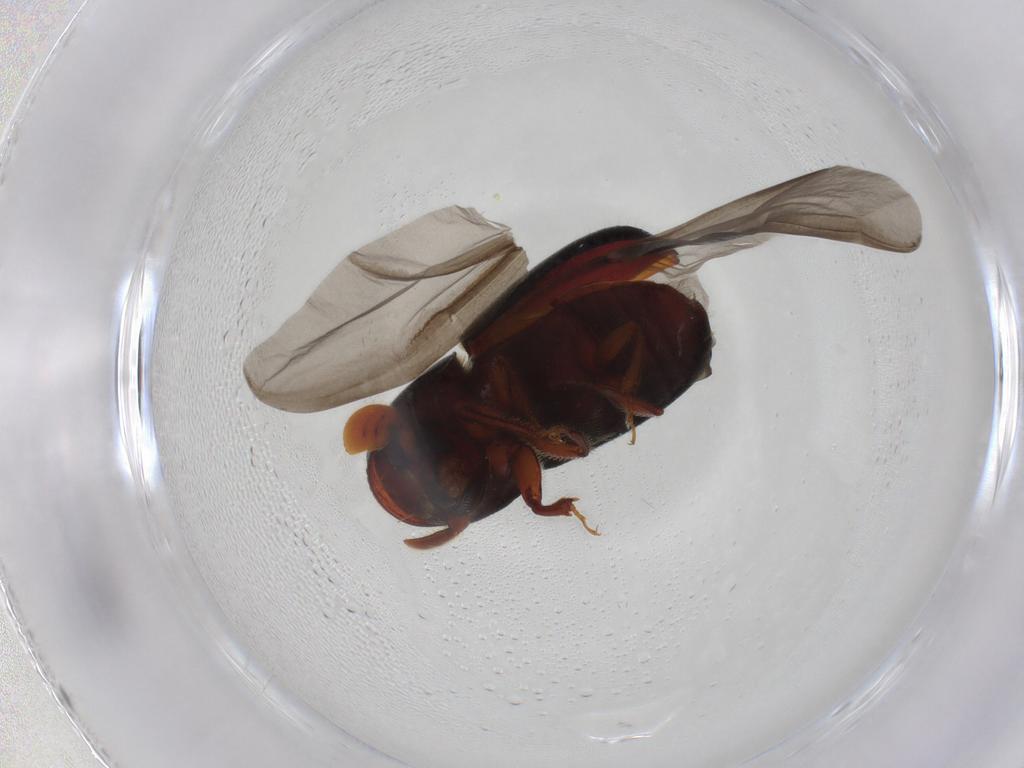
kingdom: Animalia
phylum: Arthropoda
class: Insecta
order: Coleoptera
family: Curculionidae
